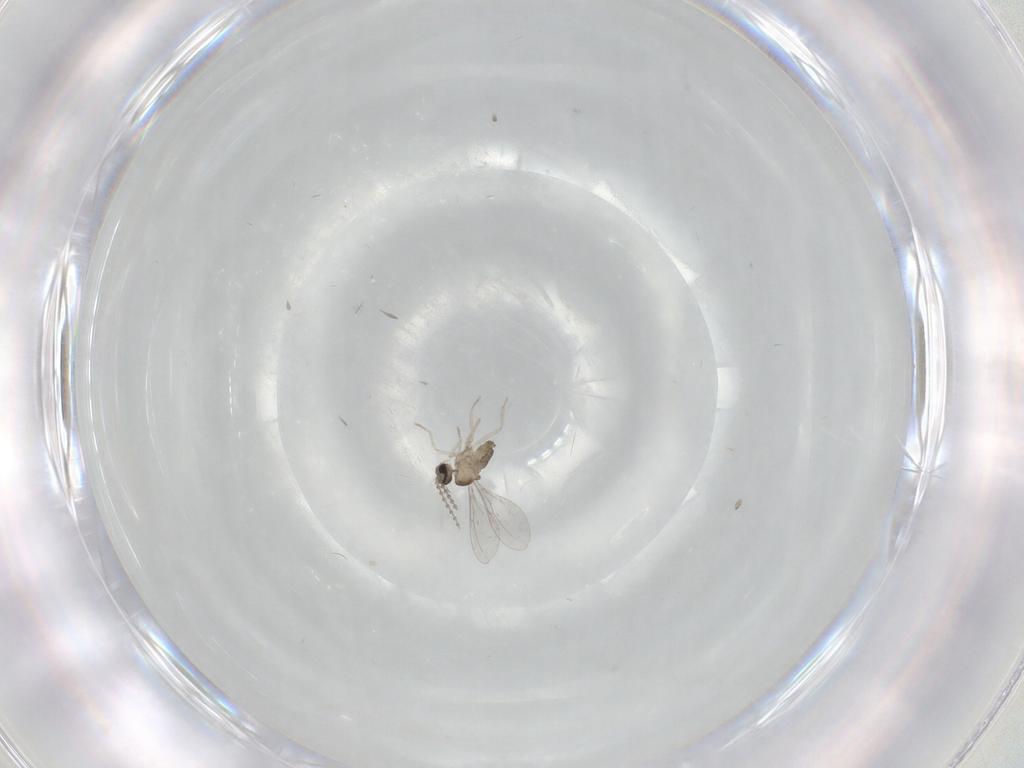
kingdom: Animalia
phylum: Arthropoda
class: Insecta
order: Diptera
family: Cecidomyiidae
